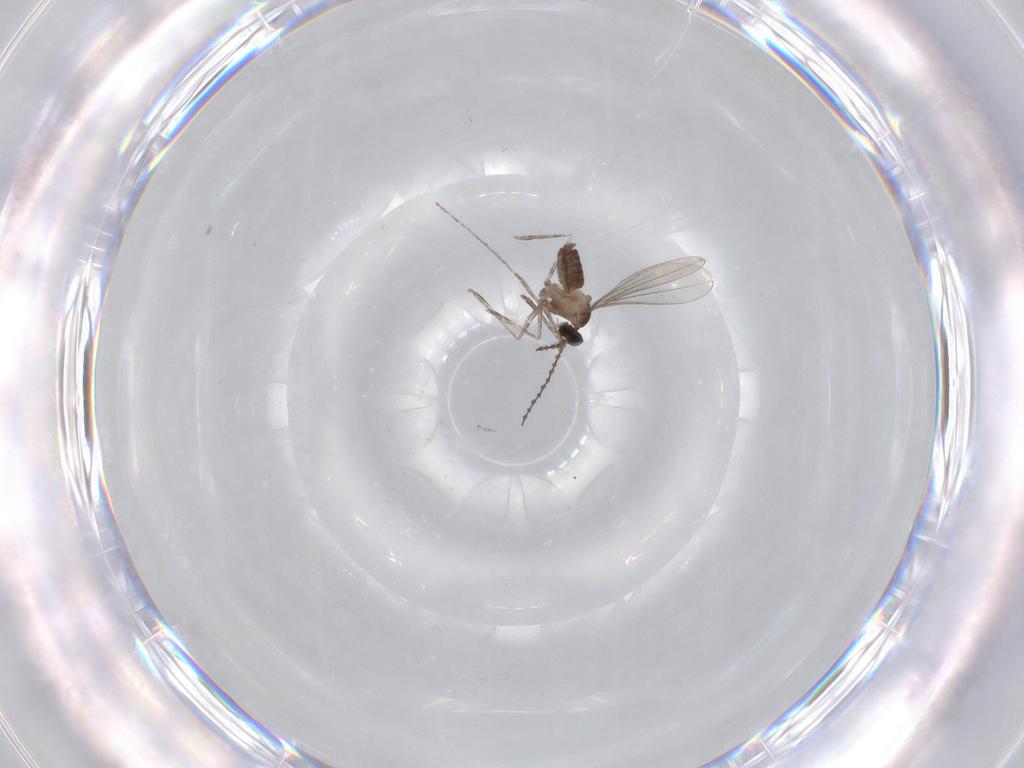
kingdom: Animalia
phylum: Arthropoda
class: Insecta
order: Diptera
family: Cecidomyiidae
